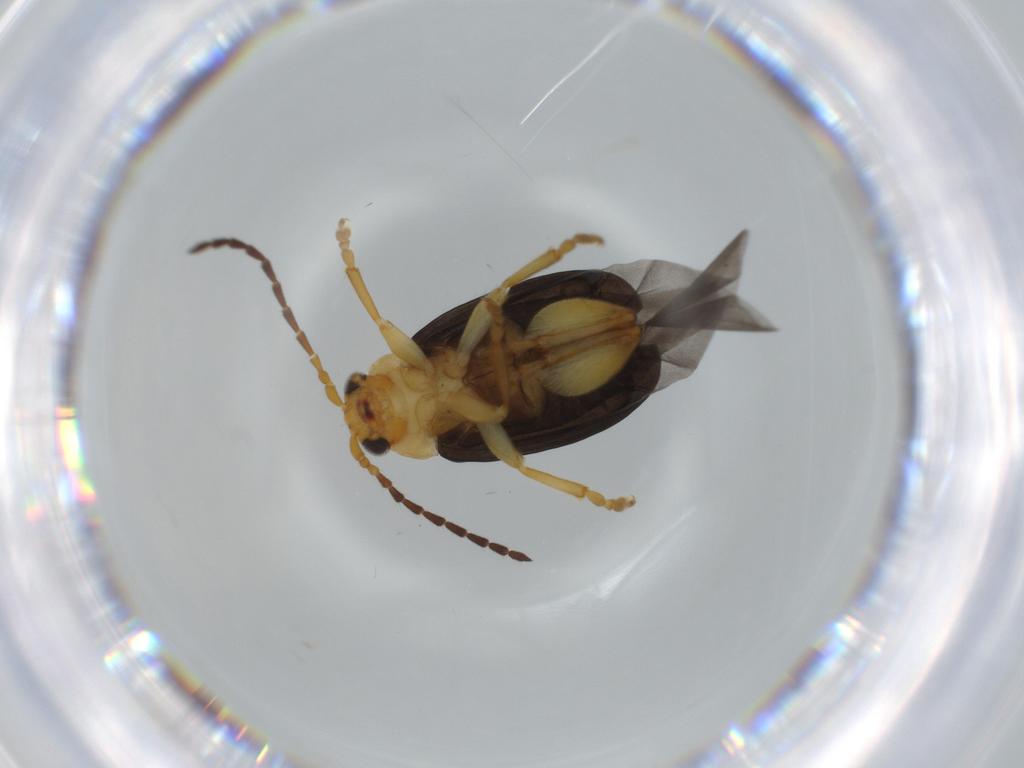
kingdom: Animalia
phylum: Arthropoda
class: Insecta
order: Coleoptera
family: Chrysomelidae
